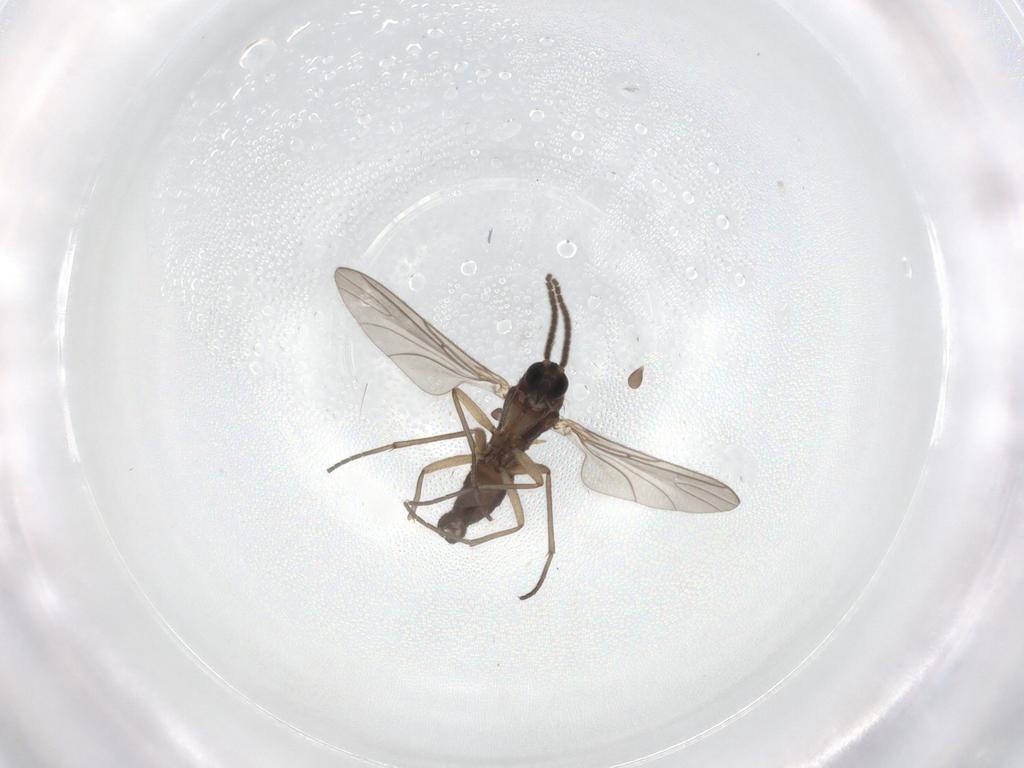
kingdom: Animalia
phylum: Arthropoda
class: Insecta
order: Diptera
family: Sciaridae
